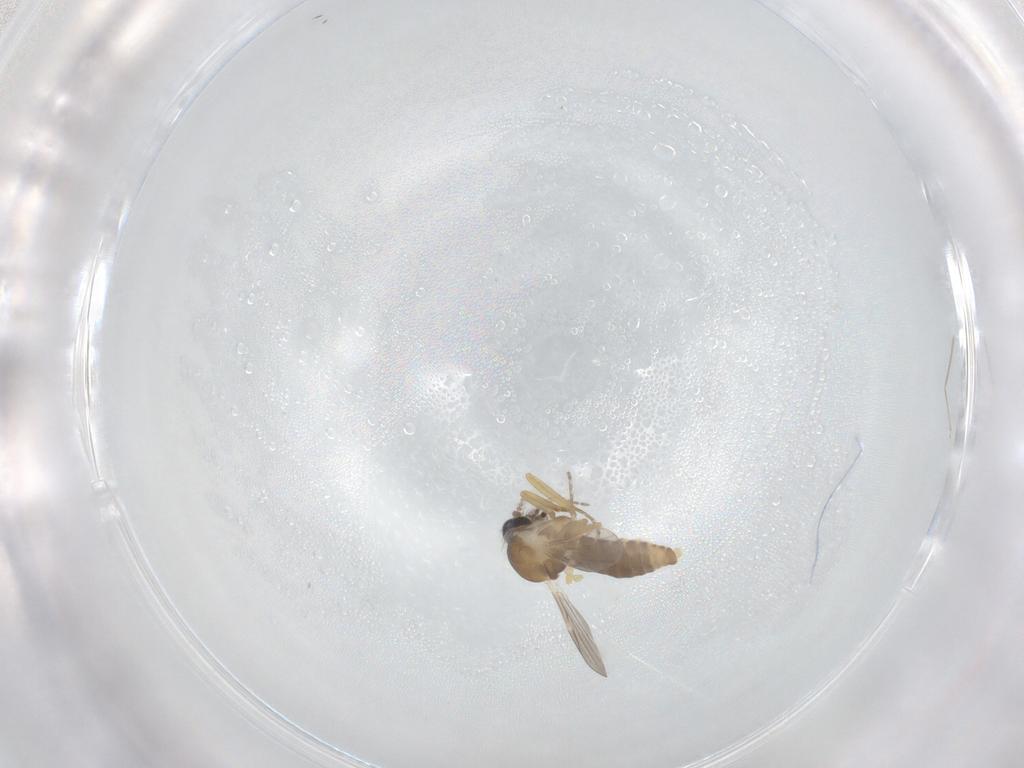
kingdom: Animalia
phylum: Arthropoda
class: Insecta
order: Diptera
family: Ceratopogonidae
